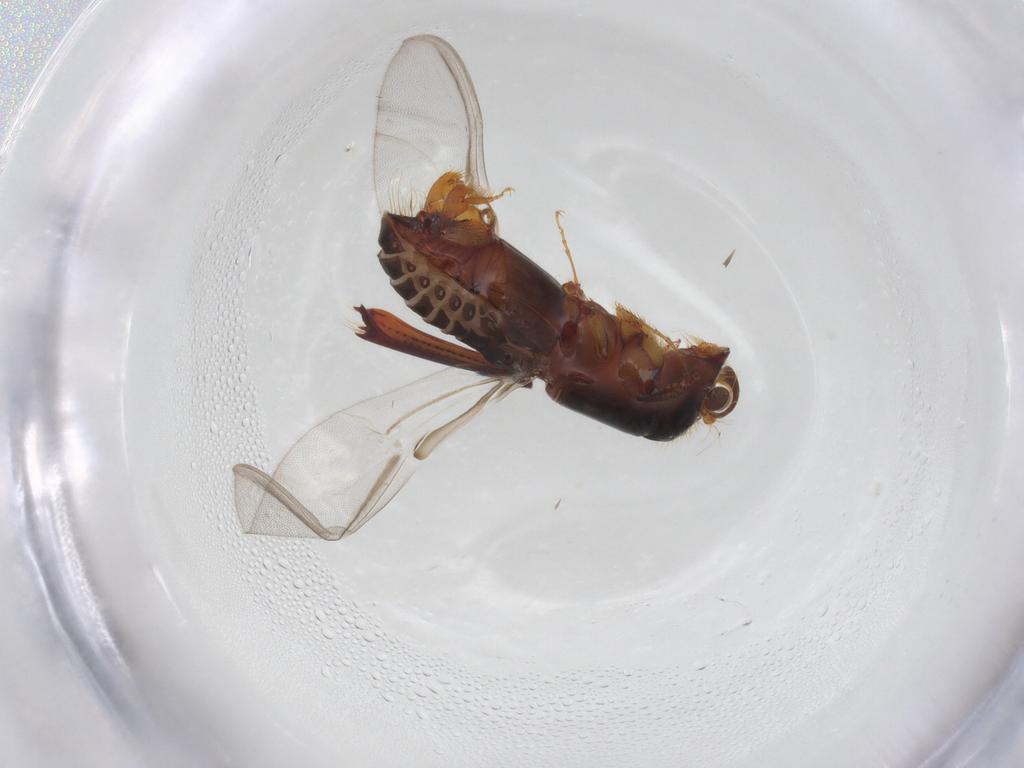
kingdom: Animalia
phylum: Arthropoda
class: Insecta
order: Coleoptera
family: Curculionidae
